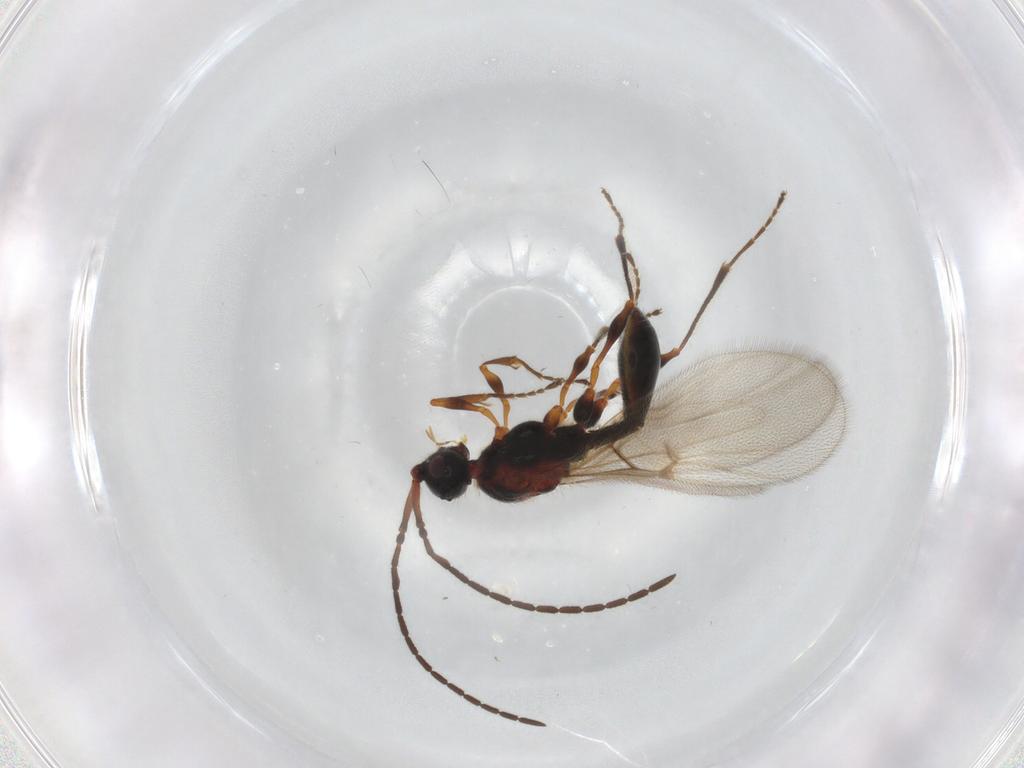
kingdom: Animalia
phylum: Arthropoda
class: Insecta
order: Hymenoptera
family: Diapriidae
